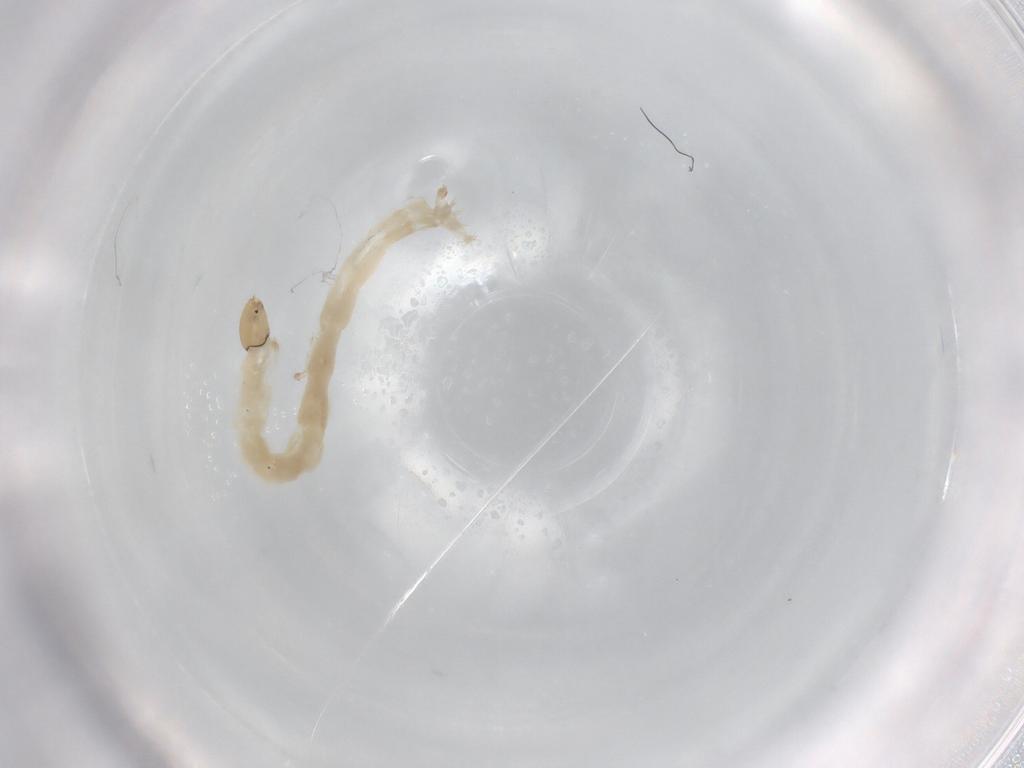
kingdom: Animalia
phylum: Arthropoda
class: Insecta
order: Diptera
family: Chironomidae
